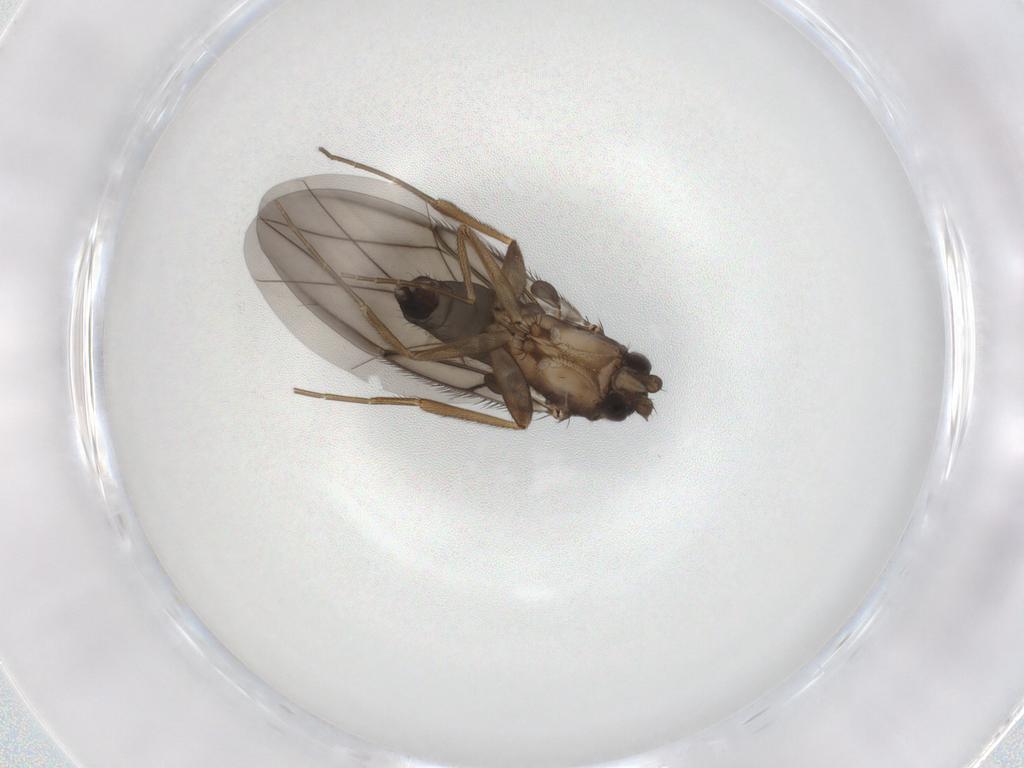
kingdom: Animalia
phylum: Arthropoda
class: Insecta
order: Diptera
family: Phoridae
